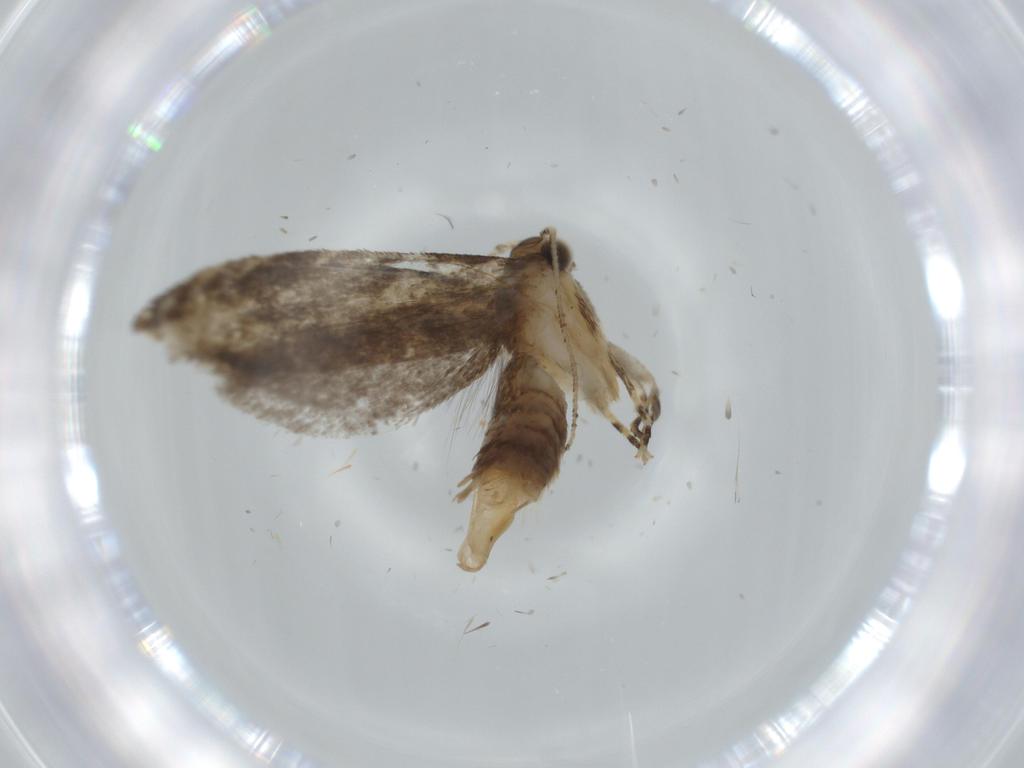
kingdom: Animalia
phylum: Arthropoda
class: Insecta
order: Lepidoptera
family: Tineidae
